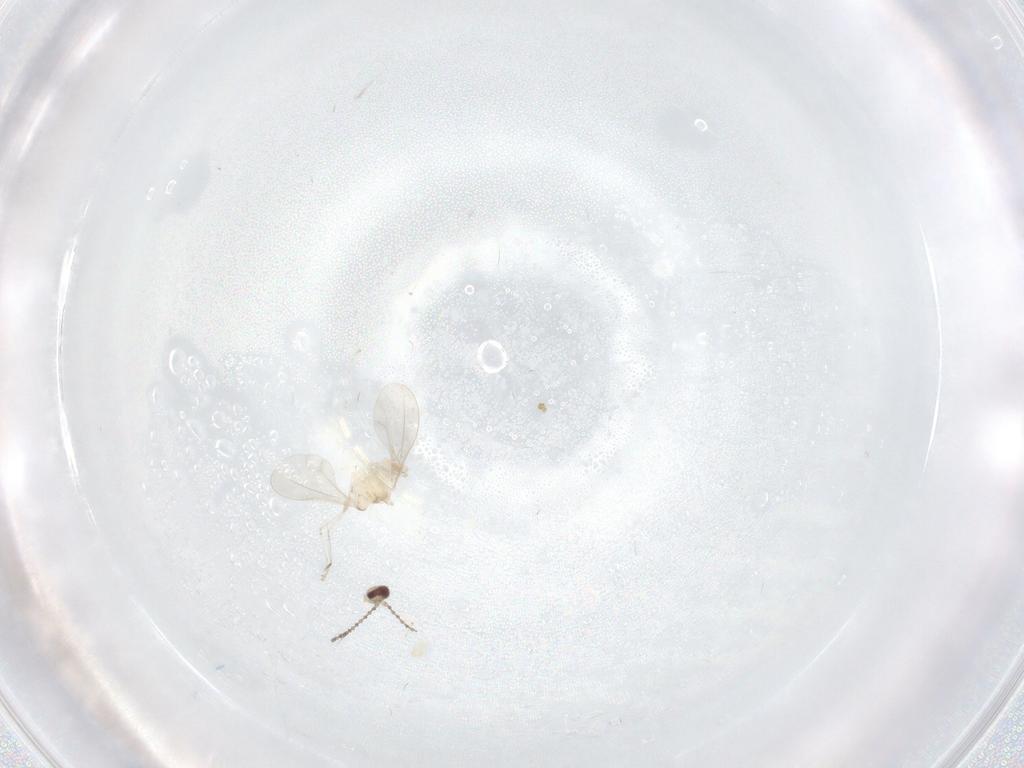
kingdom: Animalia
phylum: Arthropoda
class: Insecta
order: Diptera
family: Cecidomyiidae
